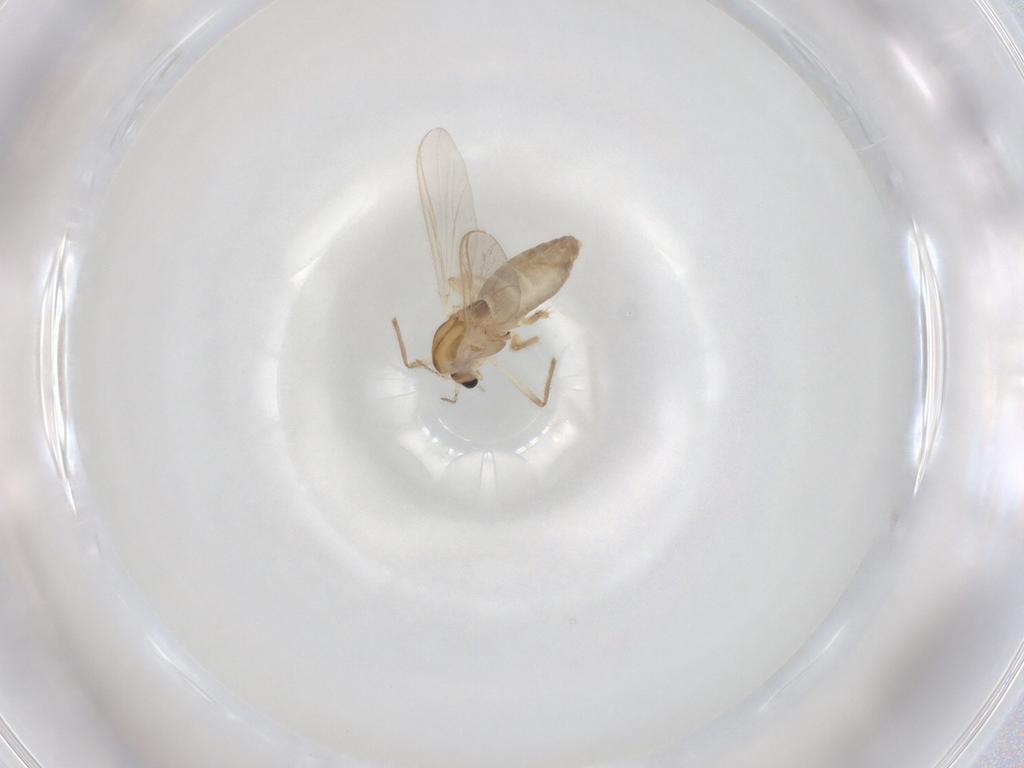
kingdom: Animalia
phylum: Arthropoda
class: Insecta
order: Diptera
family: Chironomidae
